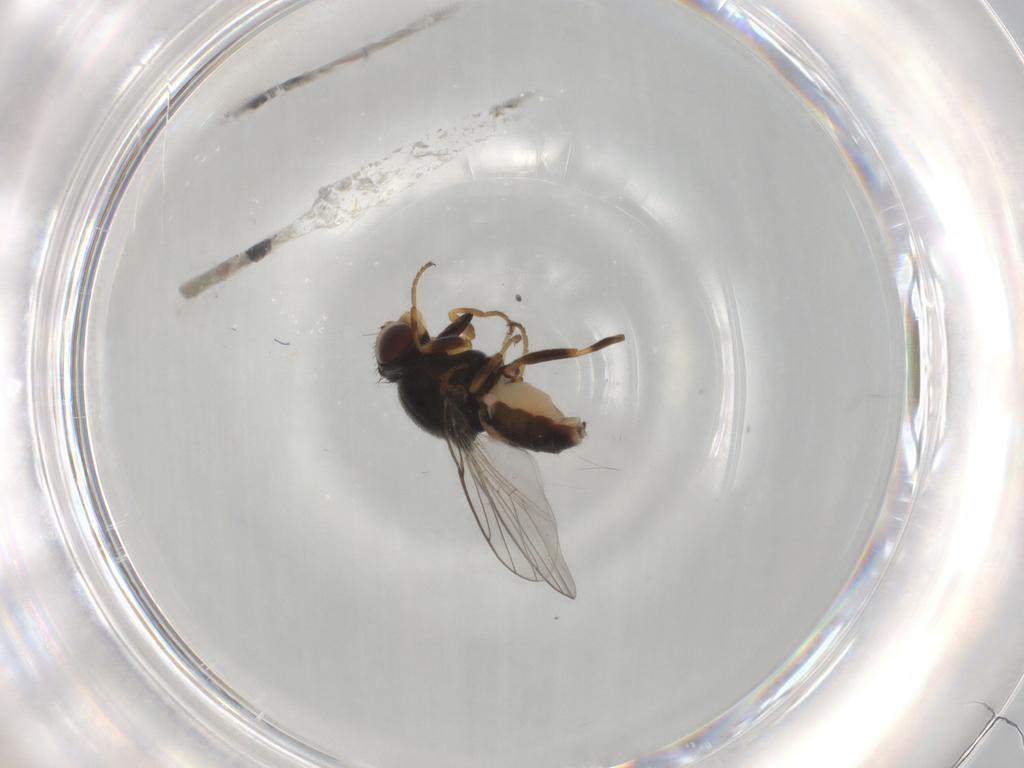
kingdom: Animalia
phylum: Arthropoda
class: Insecta
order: Diptera
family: Chloropidae
